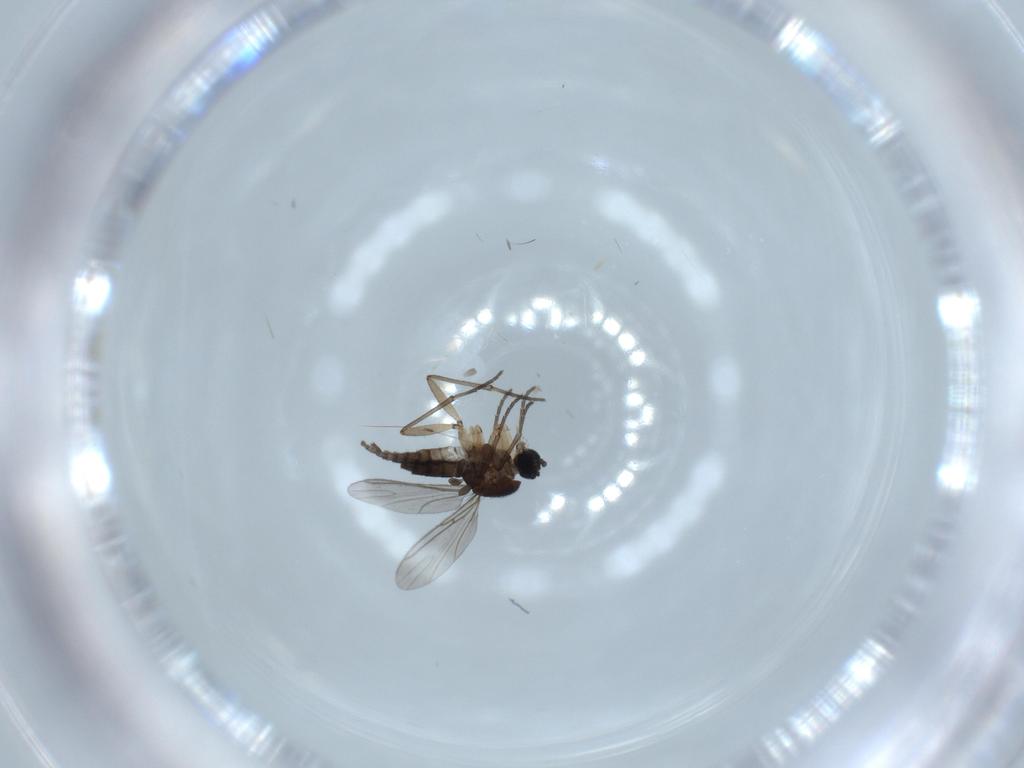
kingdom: Animalia
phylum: Arthropoda
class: Insecta
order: Diptera
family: Sciaridae
